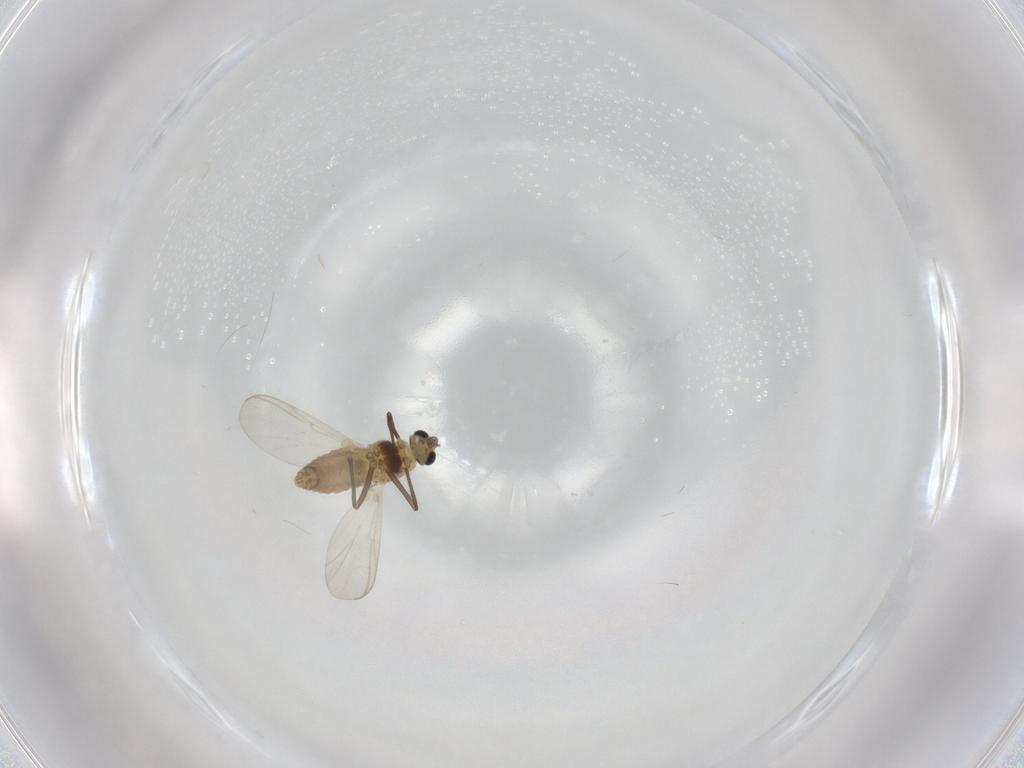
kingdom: Animalia
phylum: Arthropoda
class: Insecta
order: Diptera
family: Chironomidae
